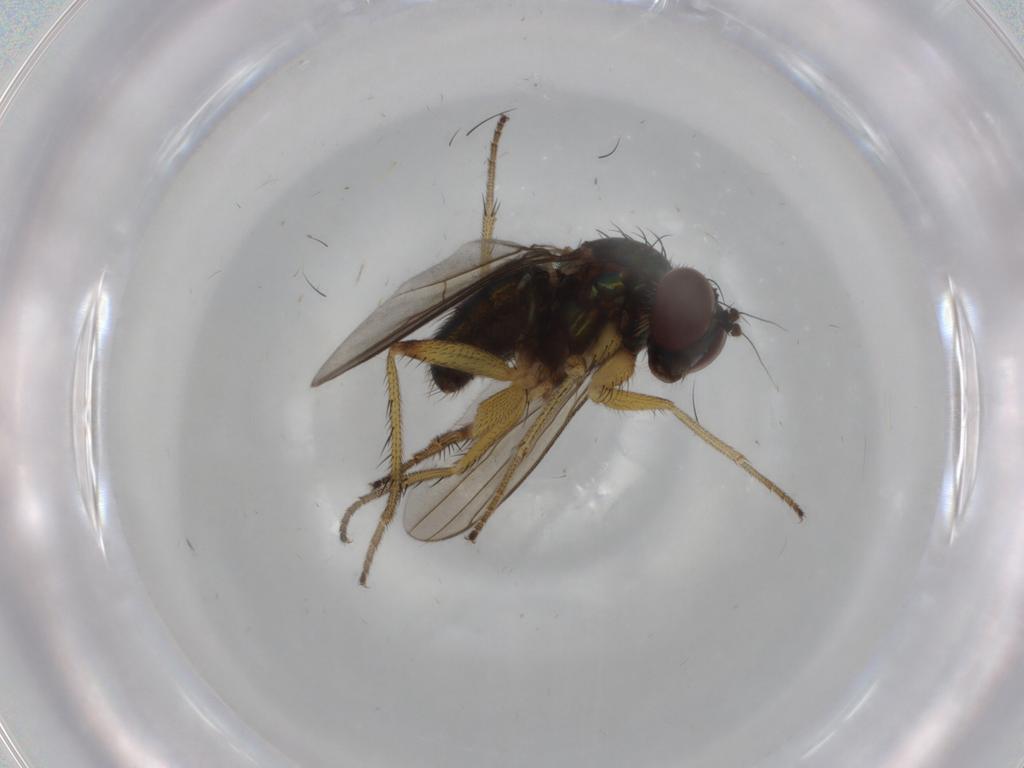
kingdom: Animalia
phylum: Arthropoda
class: Insecta
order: Diptera
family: Dolichopodidae
